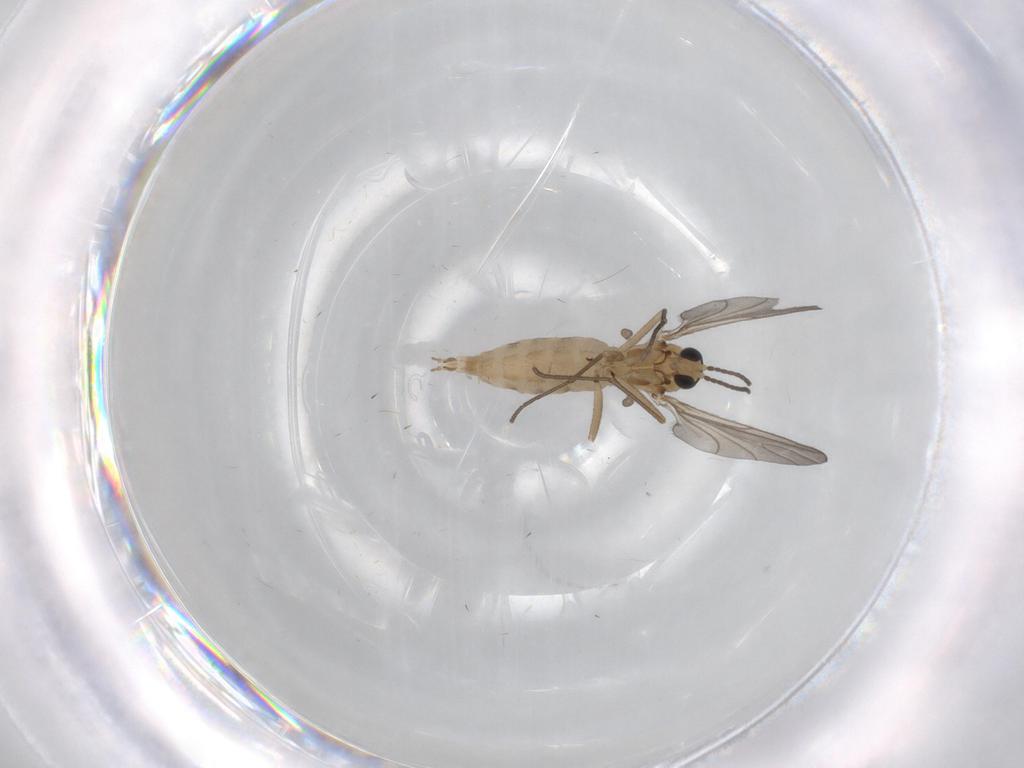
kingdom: Animalia
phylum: Arthropoda
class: Insecta
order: Diptera
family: Sciaridae
